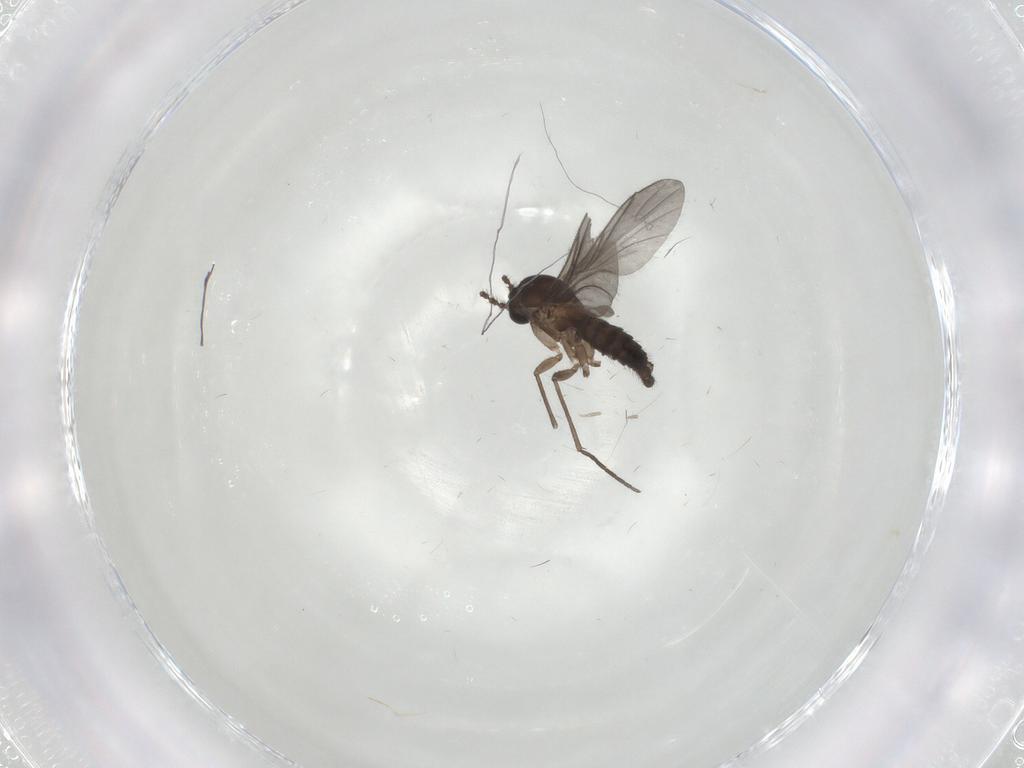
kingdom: Animalia
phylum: Arthropoda
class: Insecta
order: Diptera
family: Sciaridae
